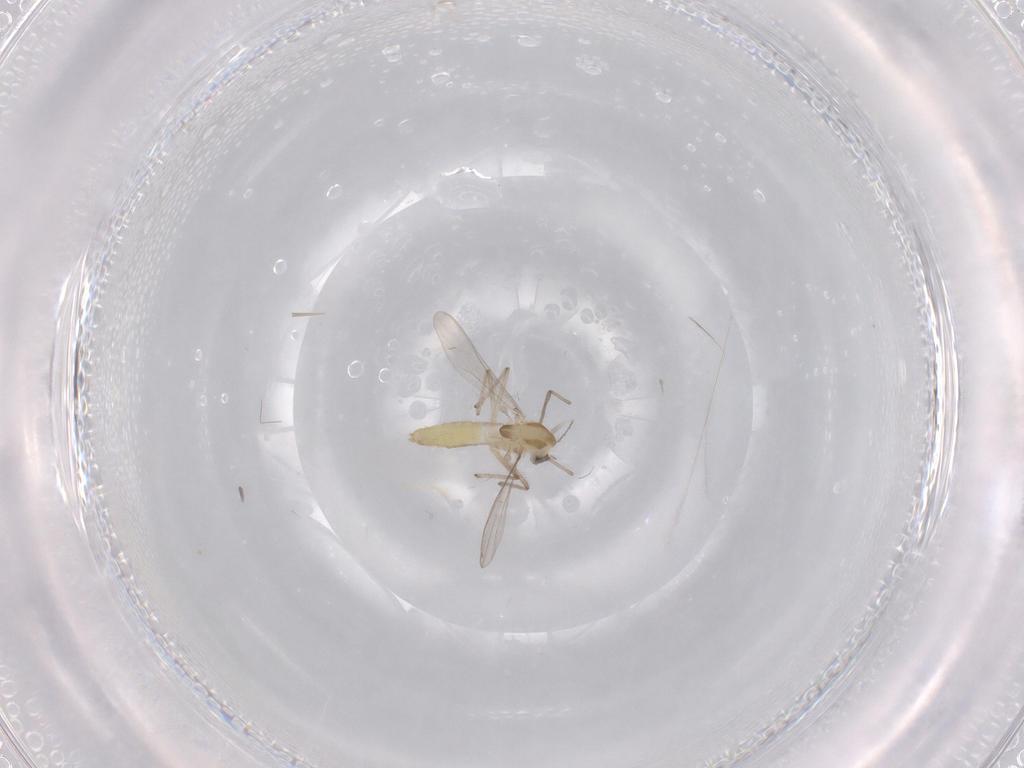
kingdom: Animalia
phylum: Arthropoda
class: Insecta
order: Diptera
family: Chironomidae
